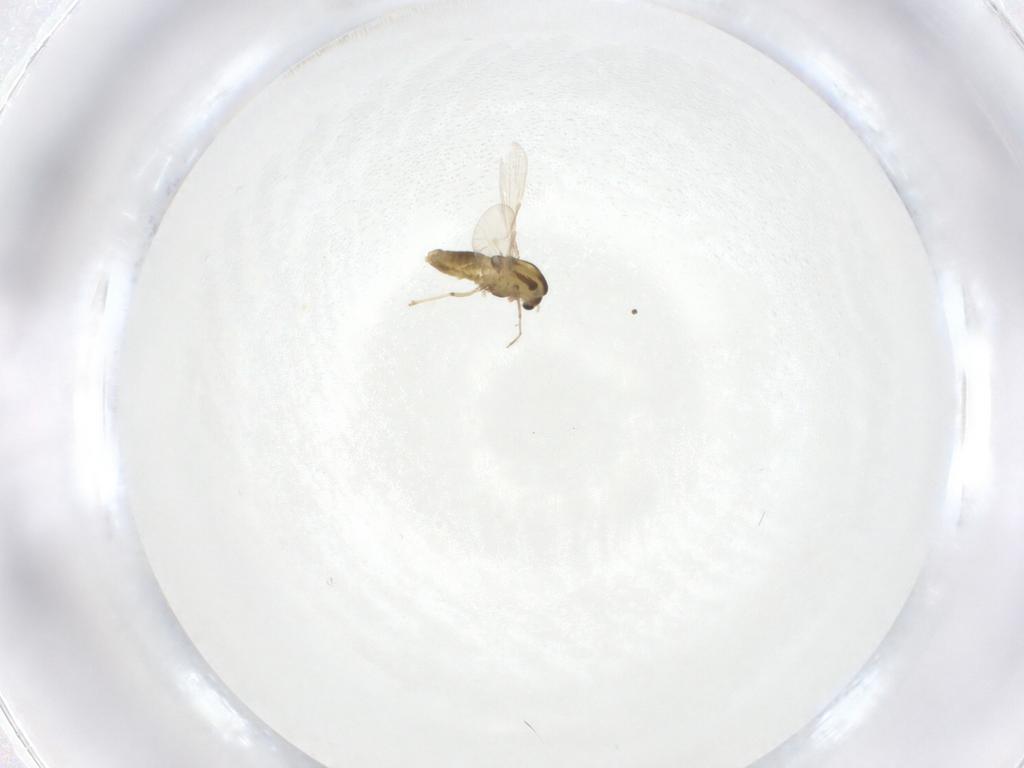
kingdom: Animalia
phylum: Arthropoda
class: Insecta
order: Diptera
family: Chironomidae
